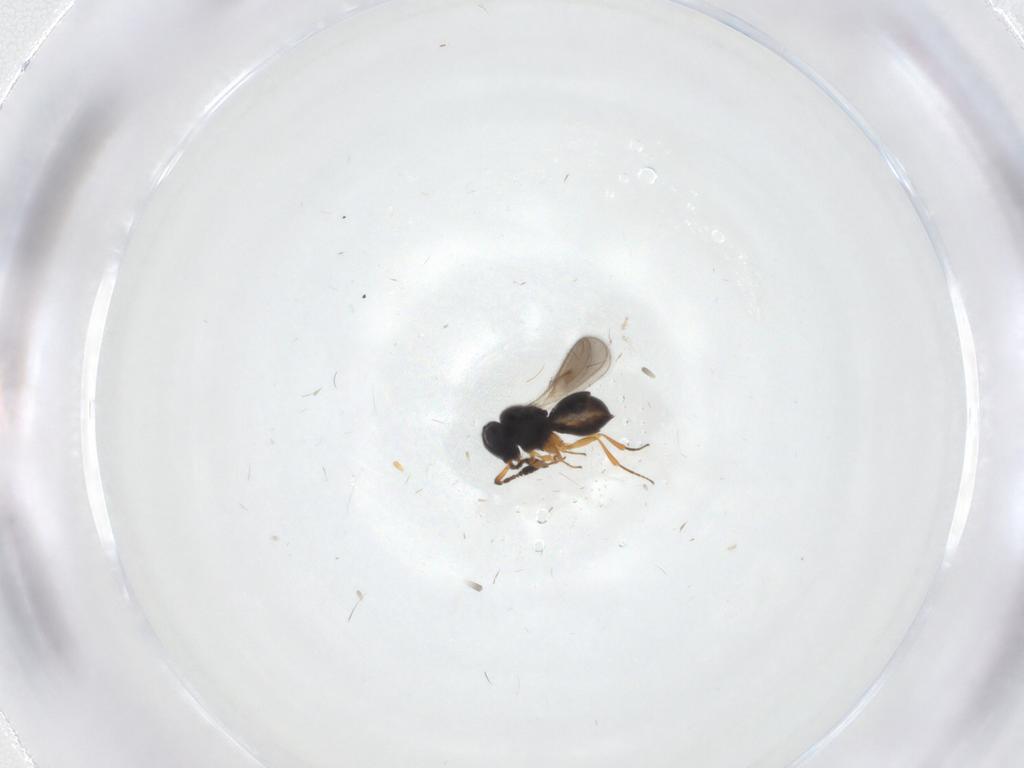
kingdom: Animalia
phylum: Arthropoda
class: Insecta
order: Hymenoptera
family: Scelionidae
